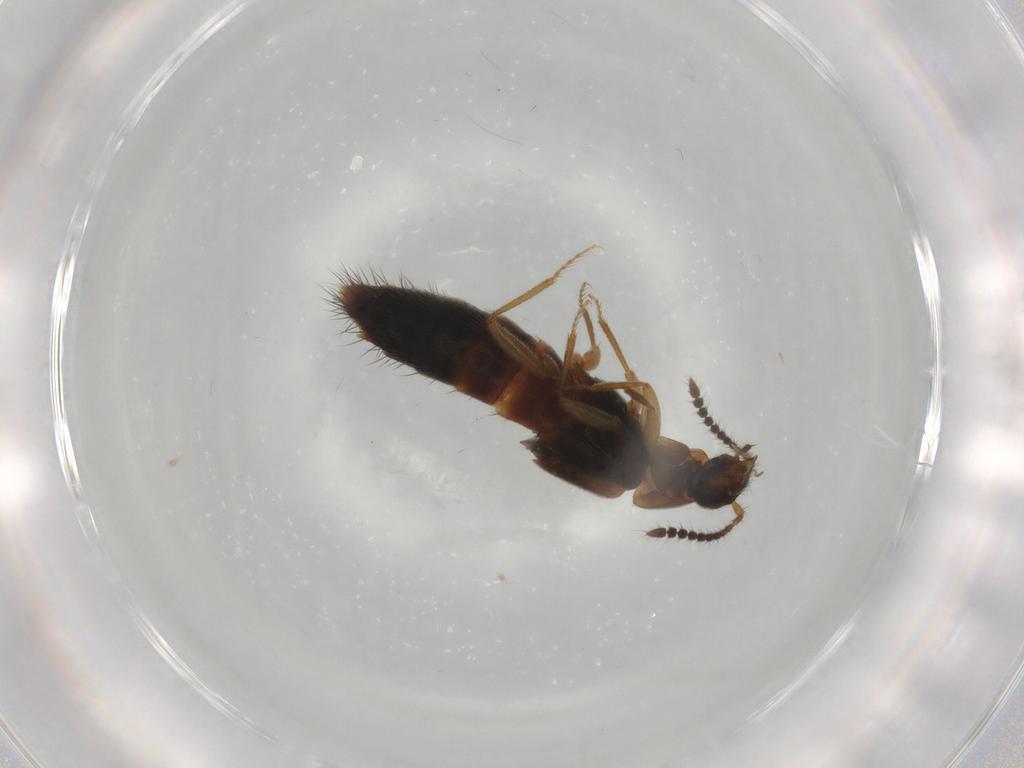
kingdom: Animalia
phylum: Arthropoda
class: Insecta
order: Coleoptera
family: Staphylinidae
